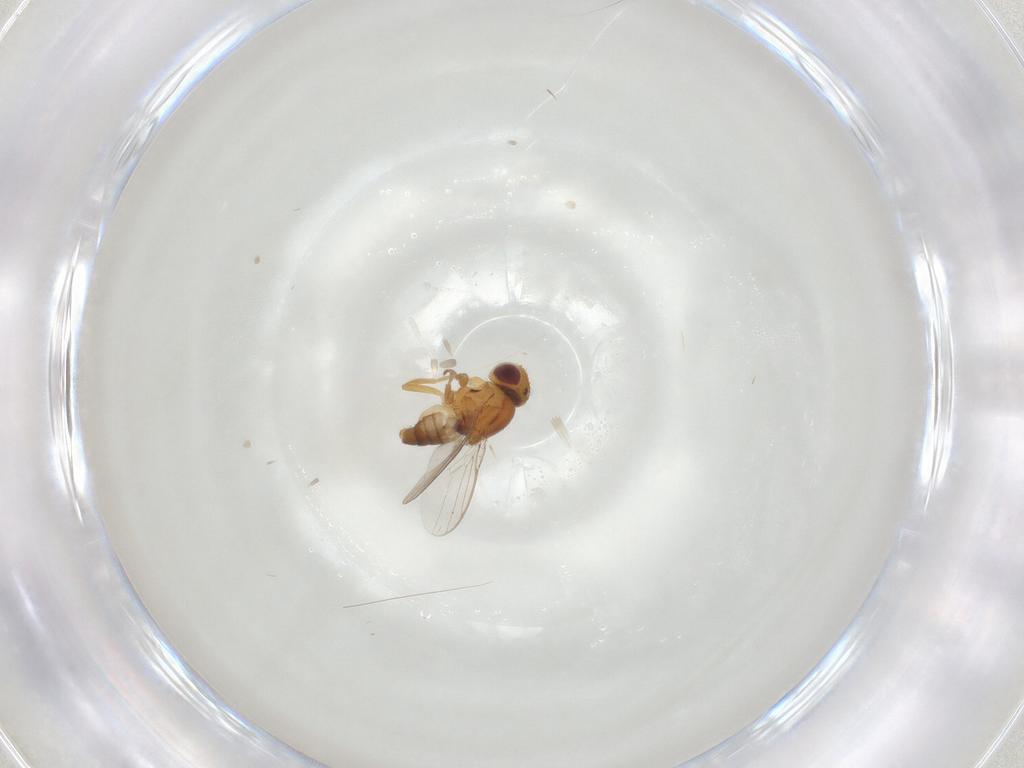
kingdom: Animalia
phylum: Arthropoda
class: Insecta
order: Diptera
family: Chloropidae
